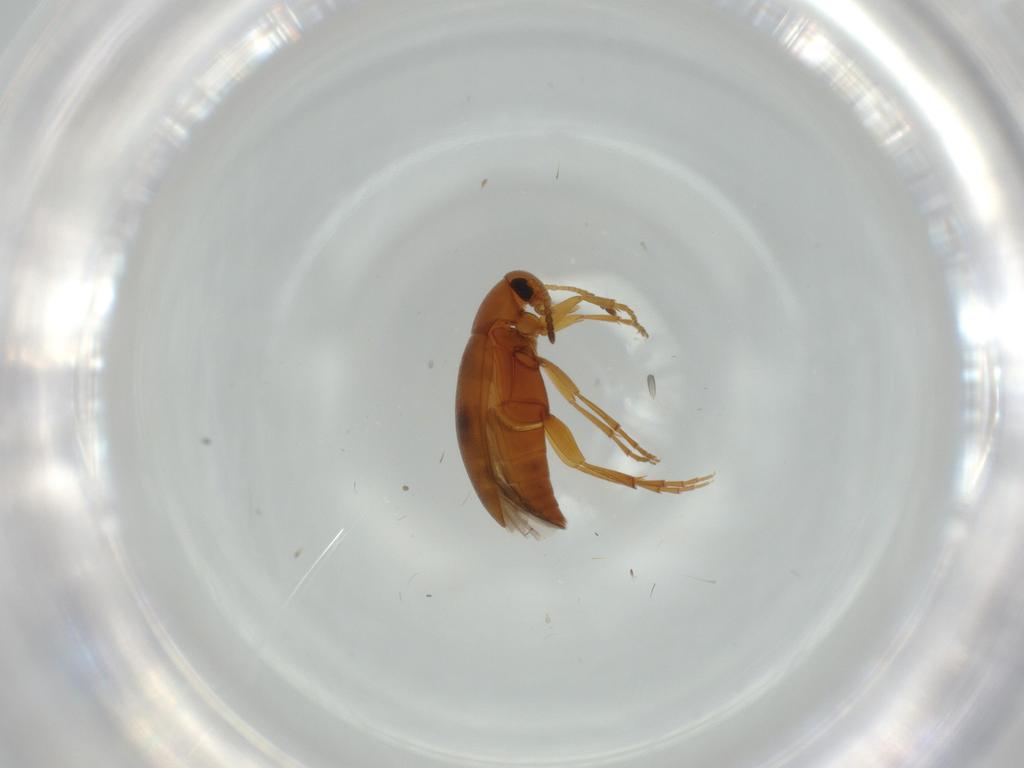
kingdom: Animalia
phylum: Arthropoda
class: Insecta
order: Coleoptera
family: Scraptiidae
